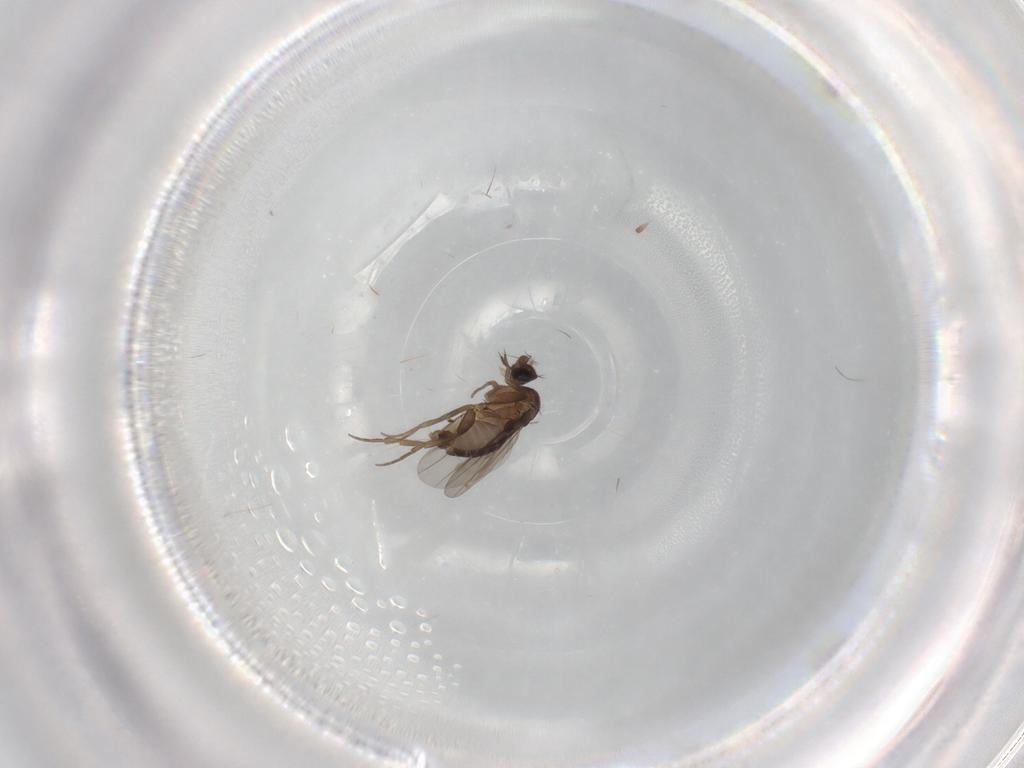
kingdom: Animalia
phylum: Arthropoda
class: Insecta
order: Diptera
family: Phoridae
